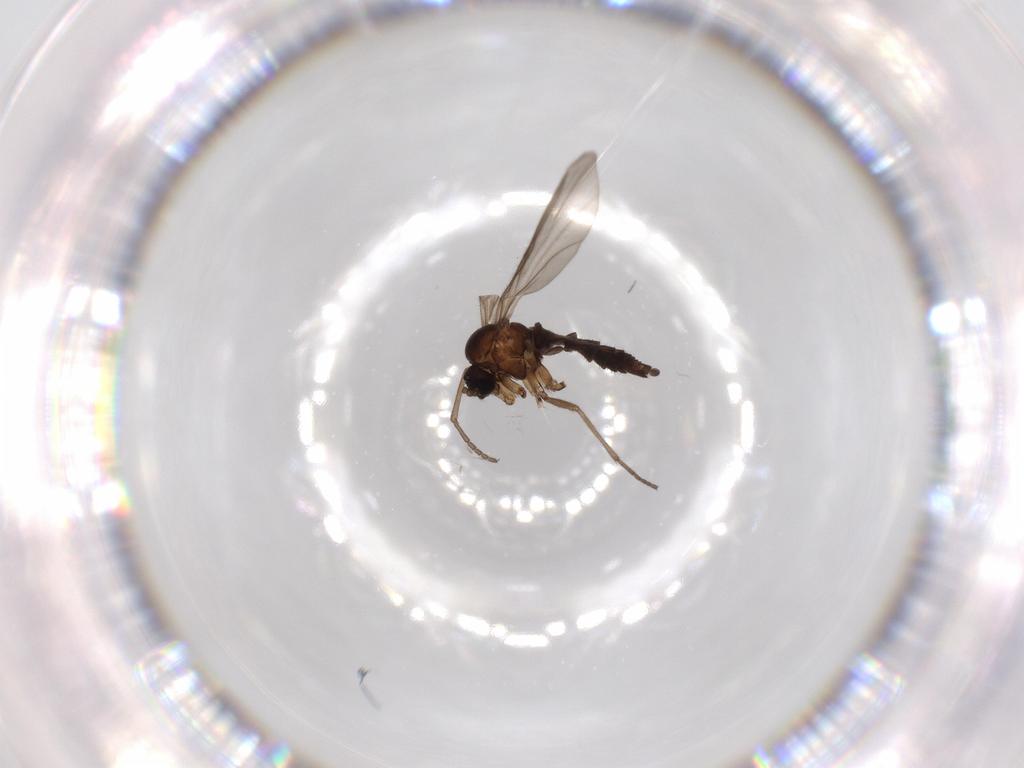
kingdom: Animalia
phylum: Arthropoda
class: Insecta
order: Diptera
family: Sciaridae
